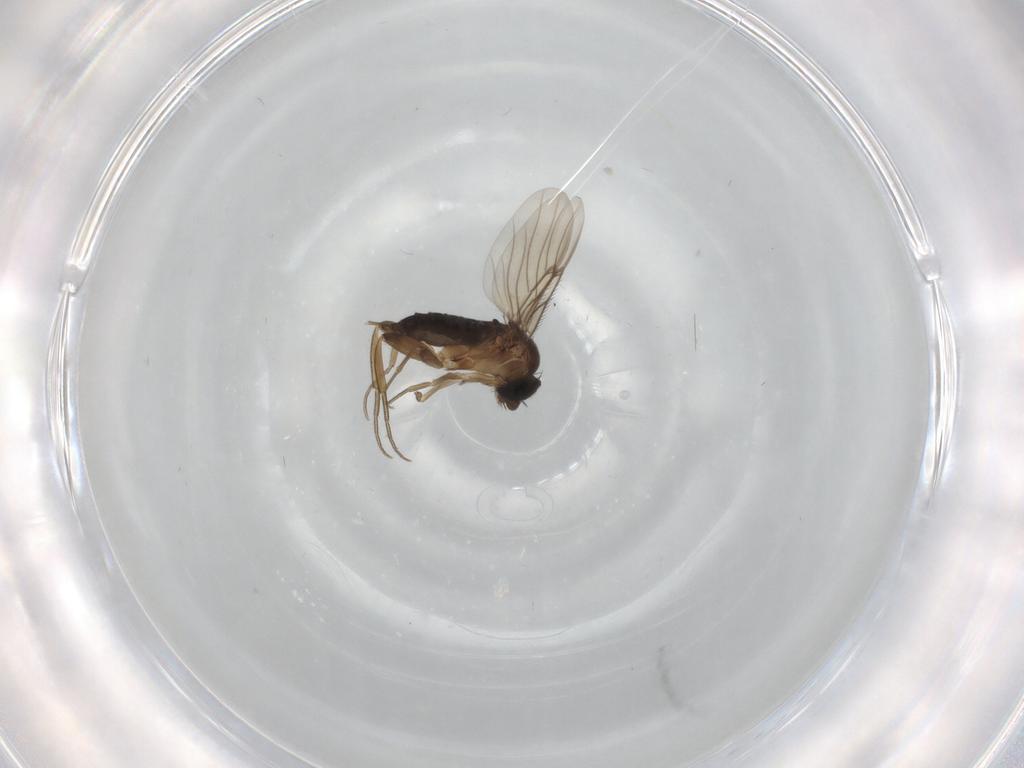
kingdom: Animalia
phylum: Arthropoda
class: Insecta
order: Diptera
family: Phoridae
